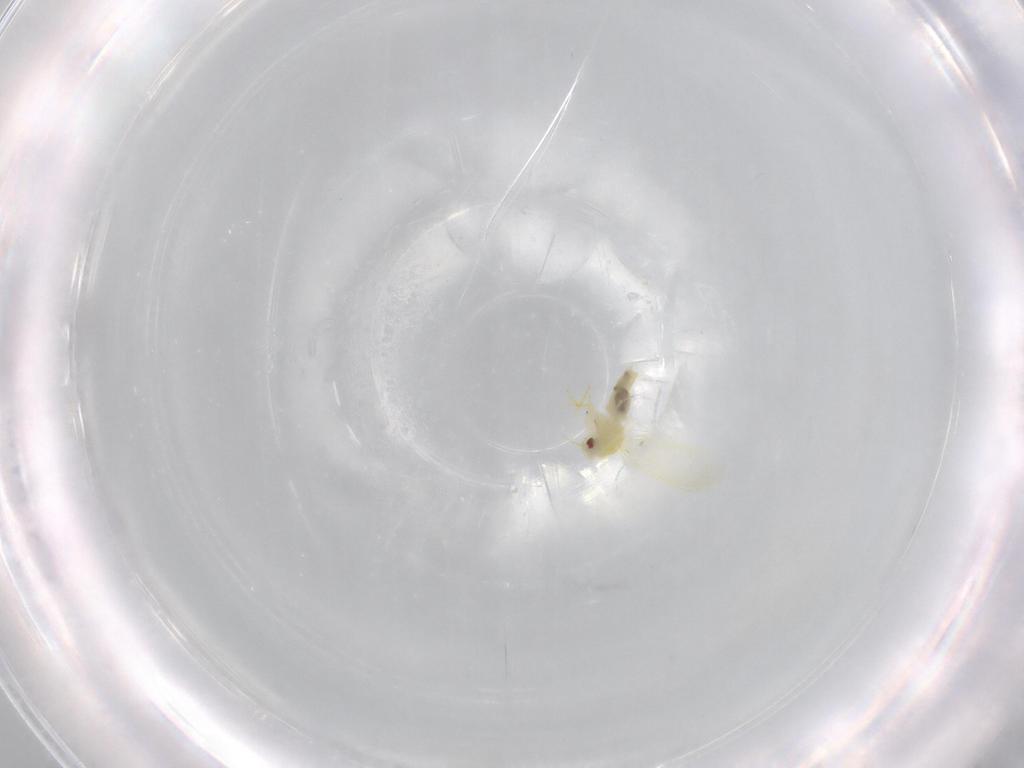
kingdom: Animalia
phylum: Arthropoda
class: Insecta
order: Hemiptera
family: Aleyrodidae
